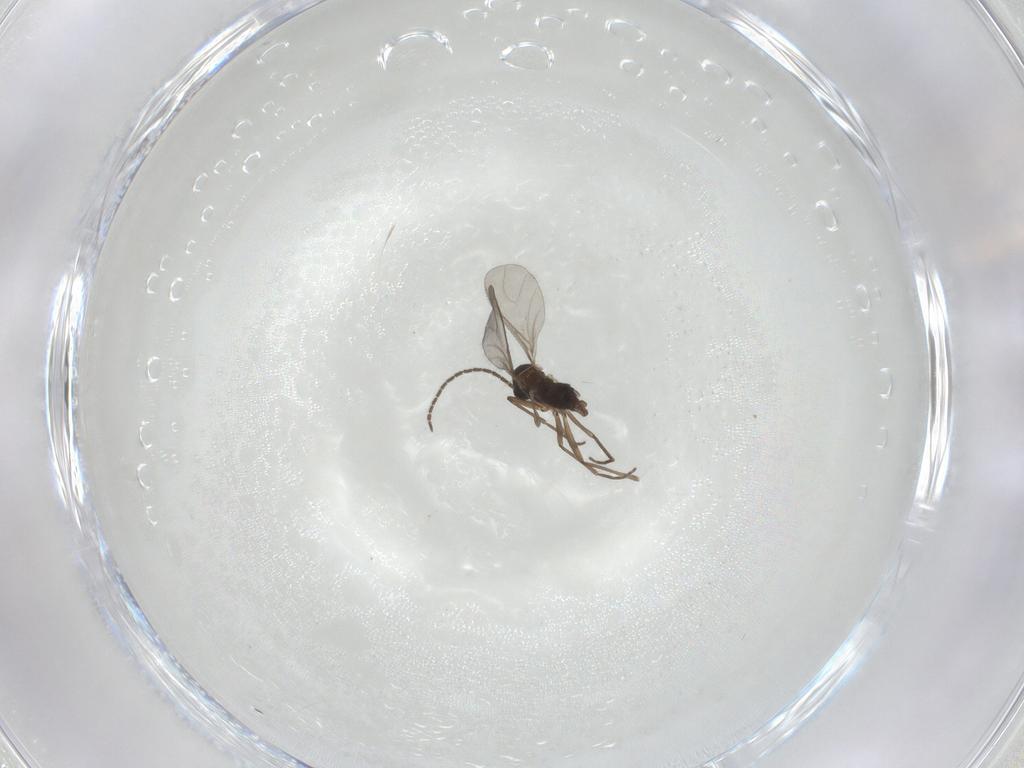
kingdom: Animalia
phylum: Arthropoda
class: Insecta
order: Diptera
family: Sciaridae
